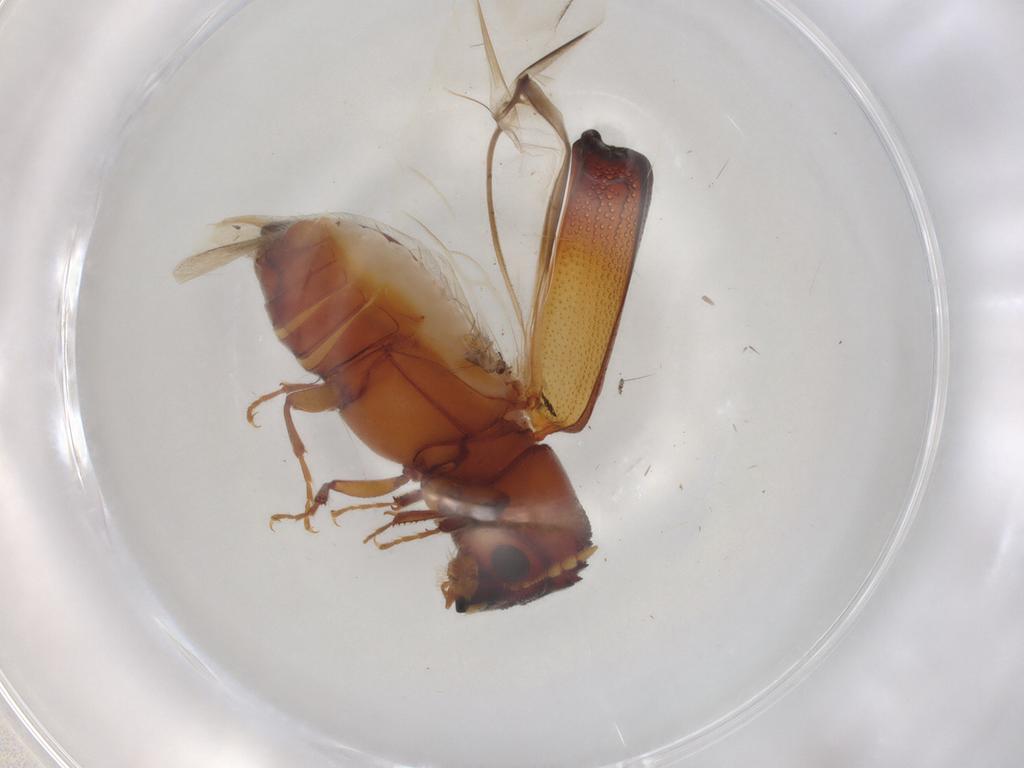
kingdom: Animalia
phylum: Arthropoda
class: Insecta
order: Coleoptera
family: Bostrichidae
